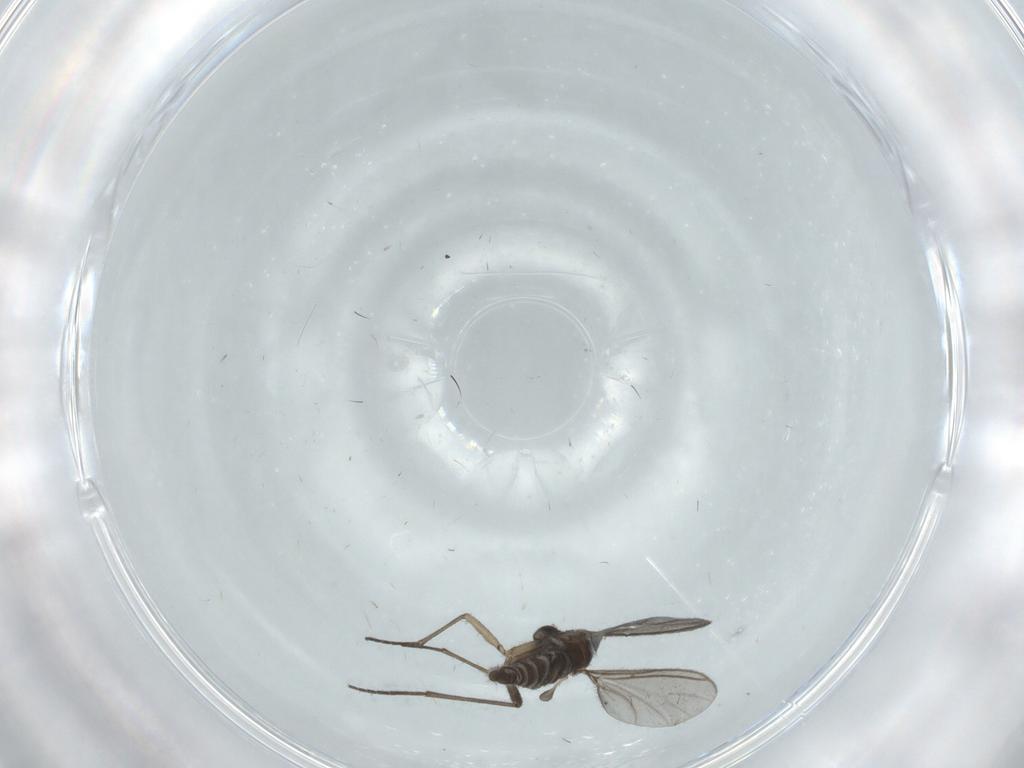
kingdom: Animalia
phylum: Arthropoda
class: Insecta
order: Diptera
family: Sciaridae
